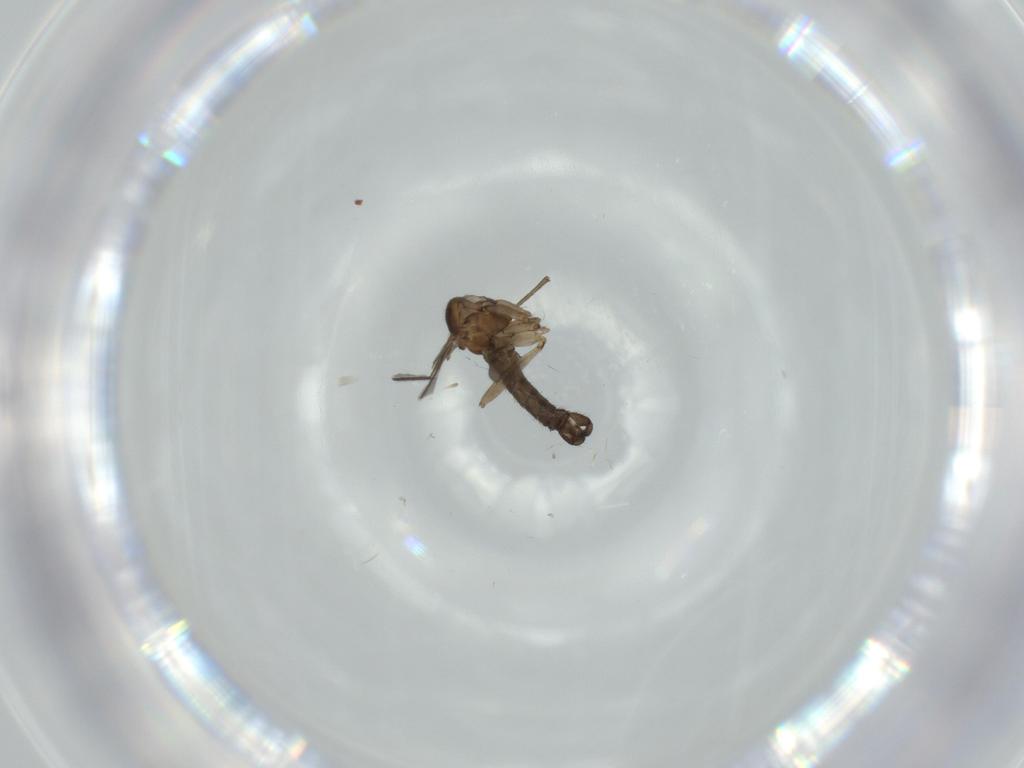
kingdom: Animalia
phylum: Arthropoda
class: Insecta
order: Diptera
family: Sciaridae
